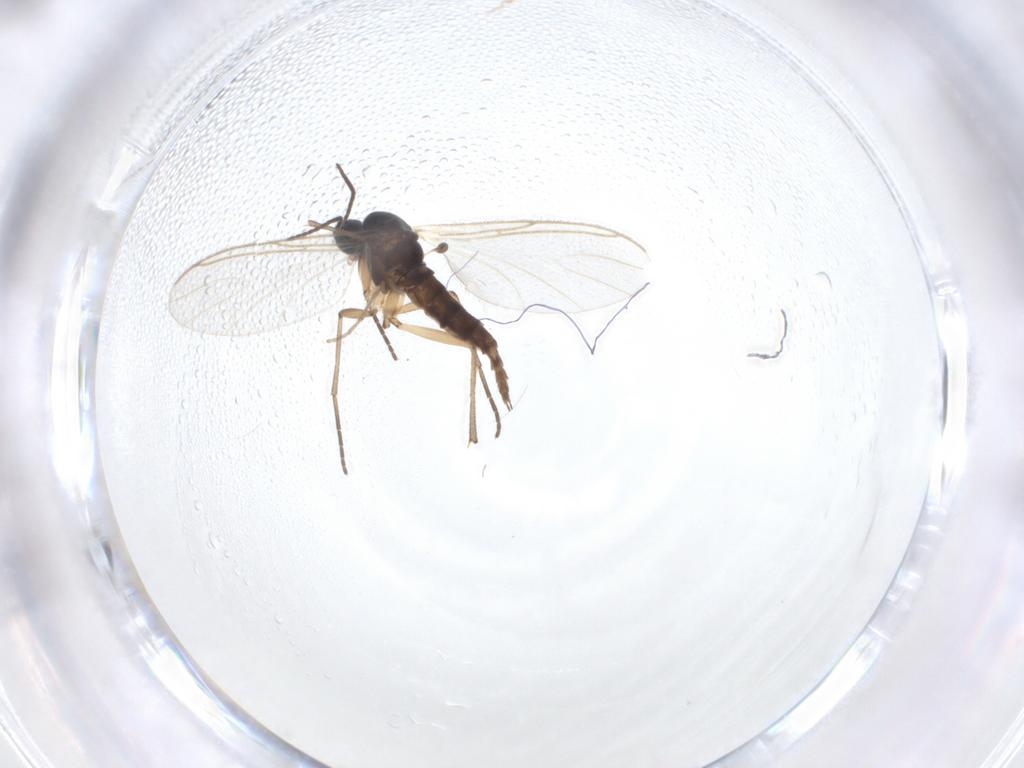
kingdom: Animalia
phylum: Arthropoda
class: Insecta
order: Diptera
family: Sciaridae
